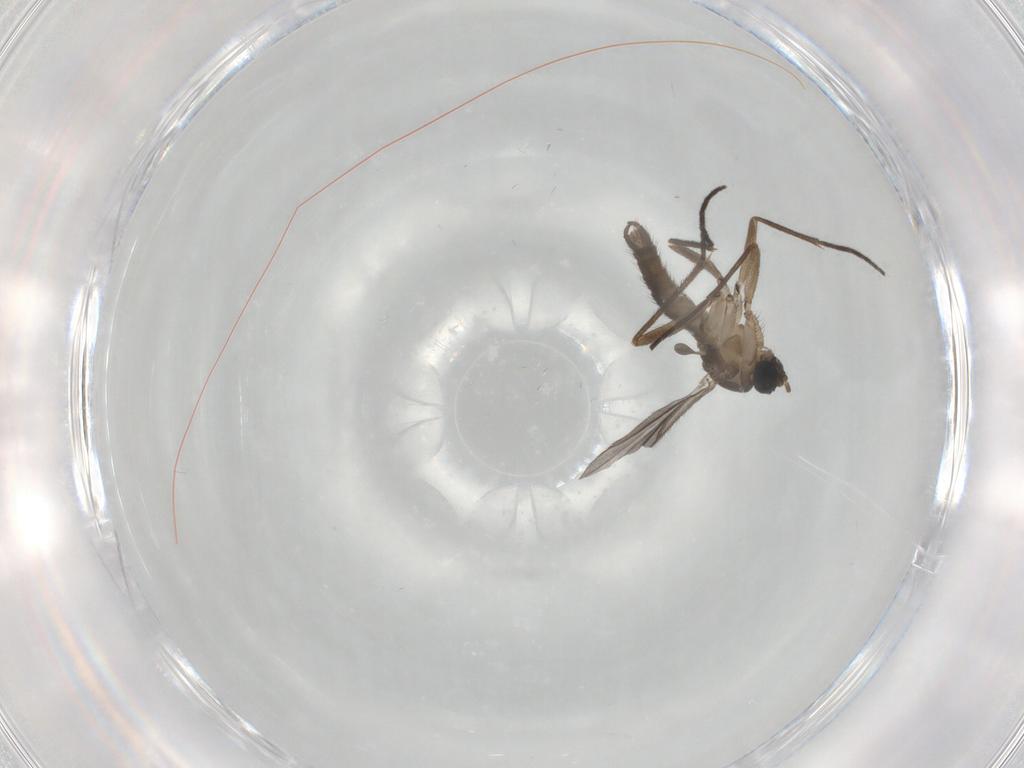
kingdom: Animalia
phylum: Arthropoda
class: Insecta
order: Diptera
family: Sciaridae
